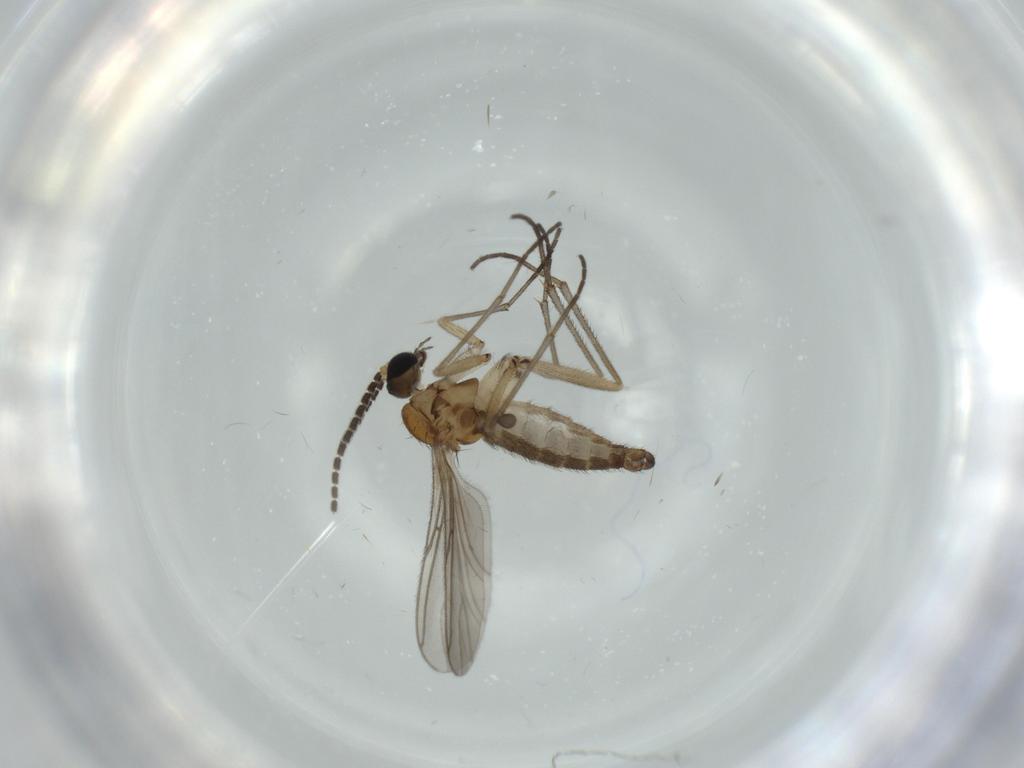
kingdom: Animalia
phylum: Arthropoda
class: Insecta
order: Diptera
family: Sciaridae
